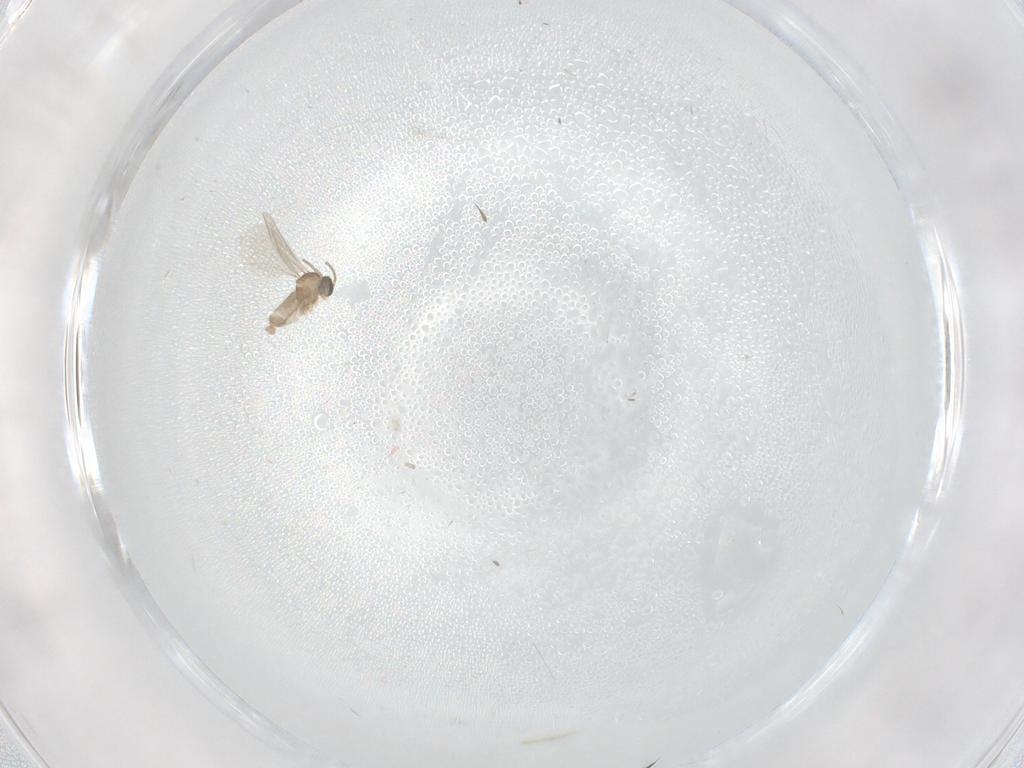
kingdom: Animalia
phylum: Arthropoda
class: Insecta
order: Diptera
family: Cecidomyiidae
